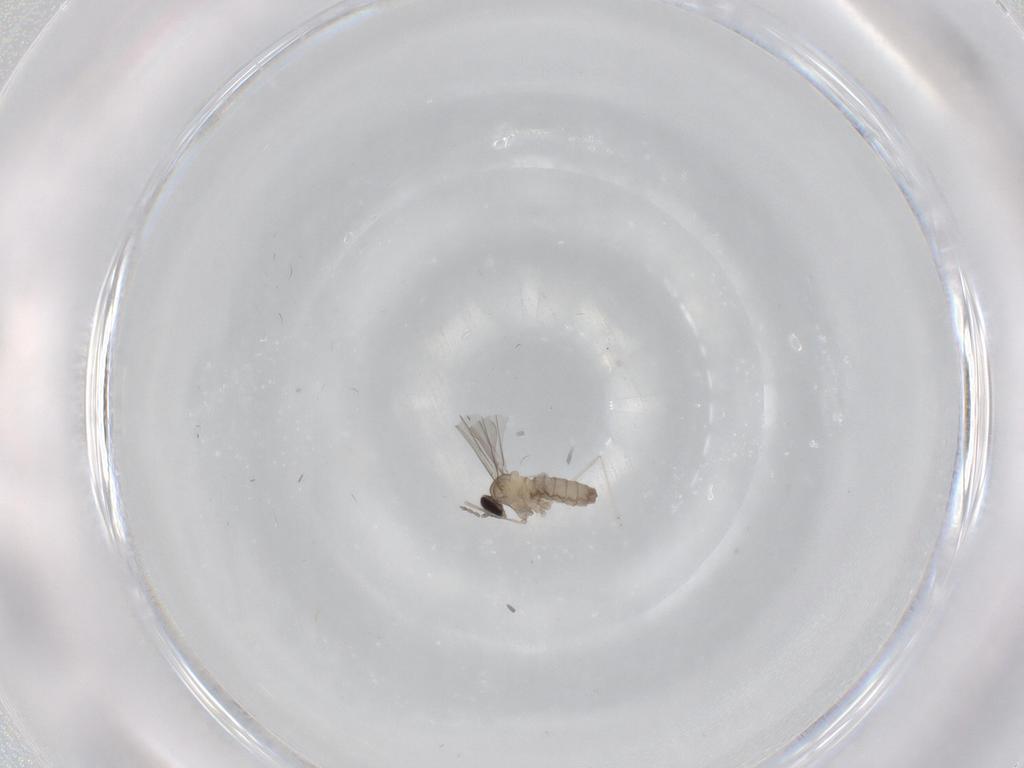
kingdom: Animalia
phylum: Arthropoda
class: Insecta
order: Diptera
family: Cecidomyiidae
